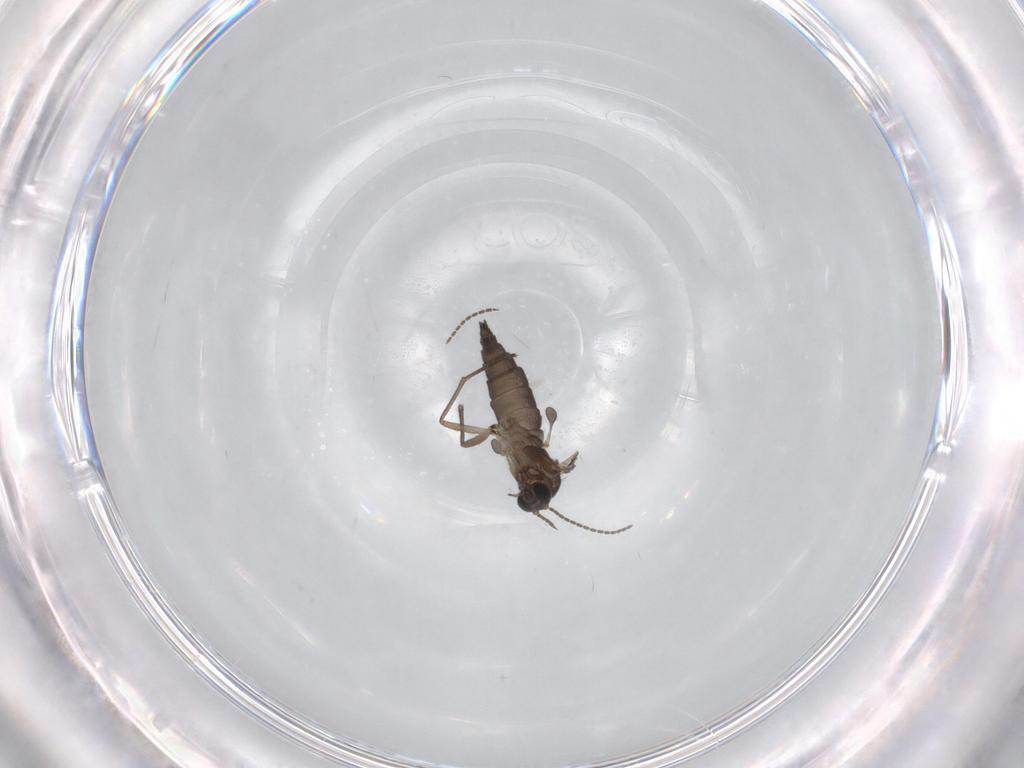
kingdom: Animalia
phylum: Arthropoda
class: Insecta
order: Diptera
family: Sciaridae
